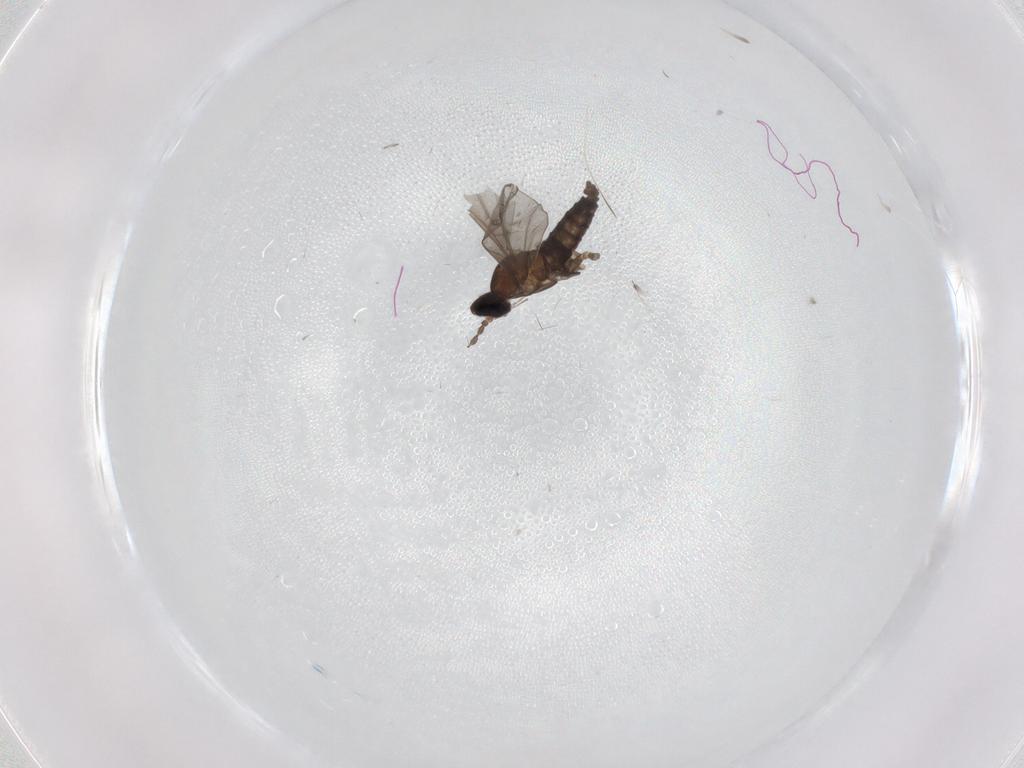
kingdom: Animalia
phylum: Arthropoda
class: Insecta
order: Diptera
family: Cecidomyiidae
